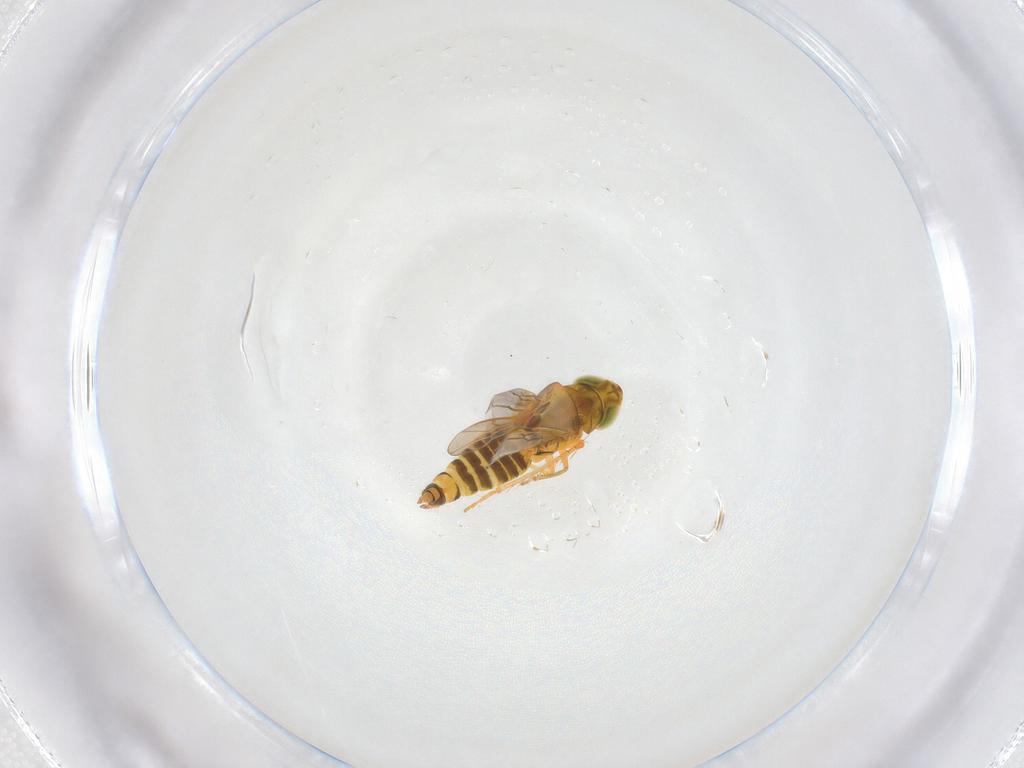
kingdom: Animalia
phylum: Arthropoda
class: Insecta
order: Hemiptera
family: Cicadellidae
